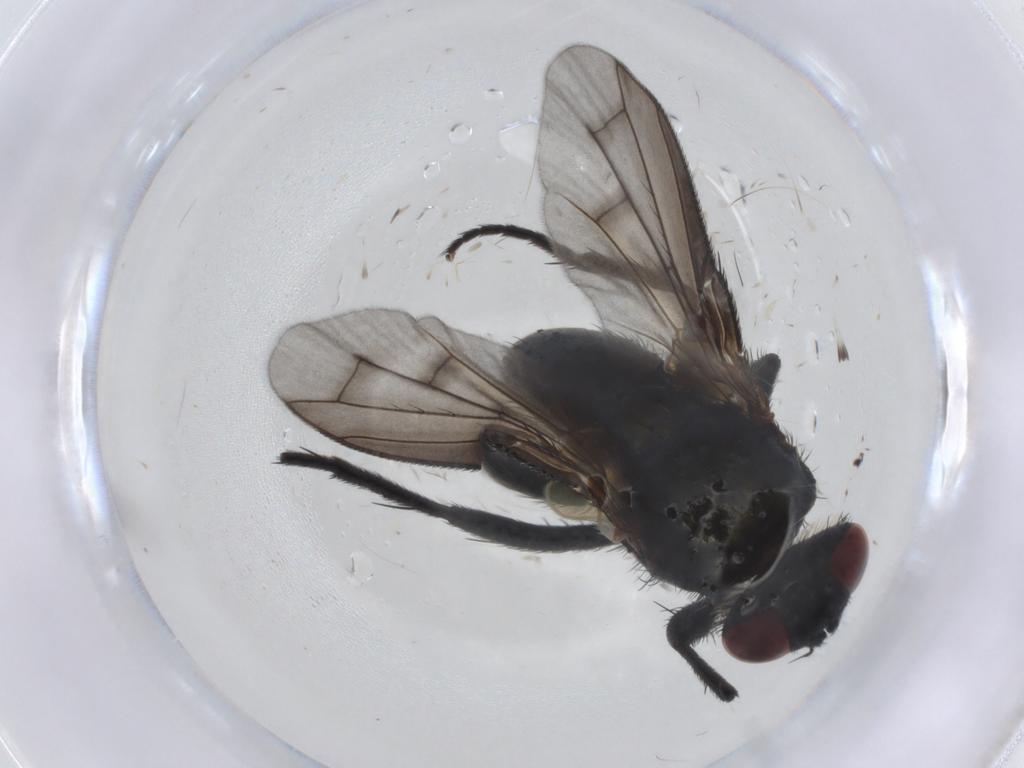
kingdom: Animalia
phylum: Arthropoda
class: Insecta
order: Diptera
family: Tachinidae
